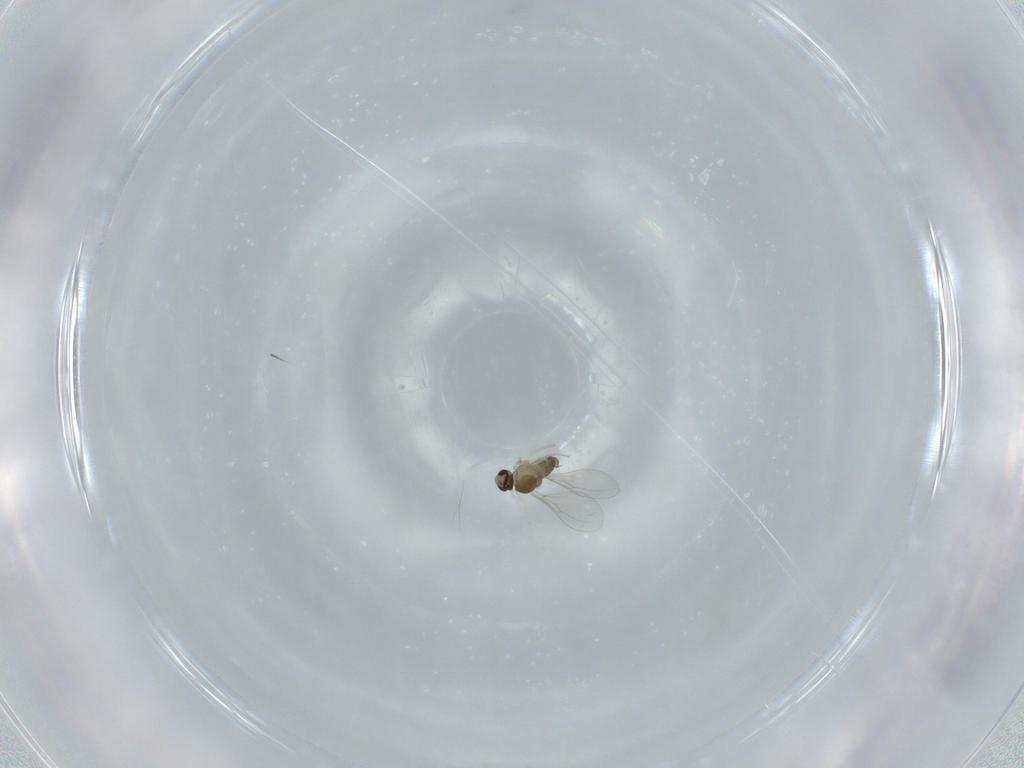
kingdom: Animalia
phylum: Arthropoda
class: Insecta
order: Diptera
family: Cecidomyiidae
